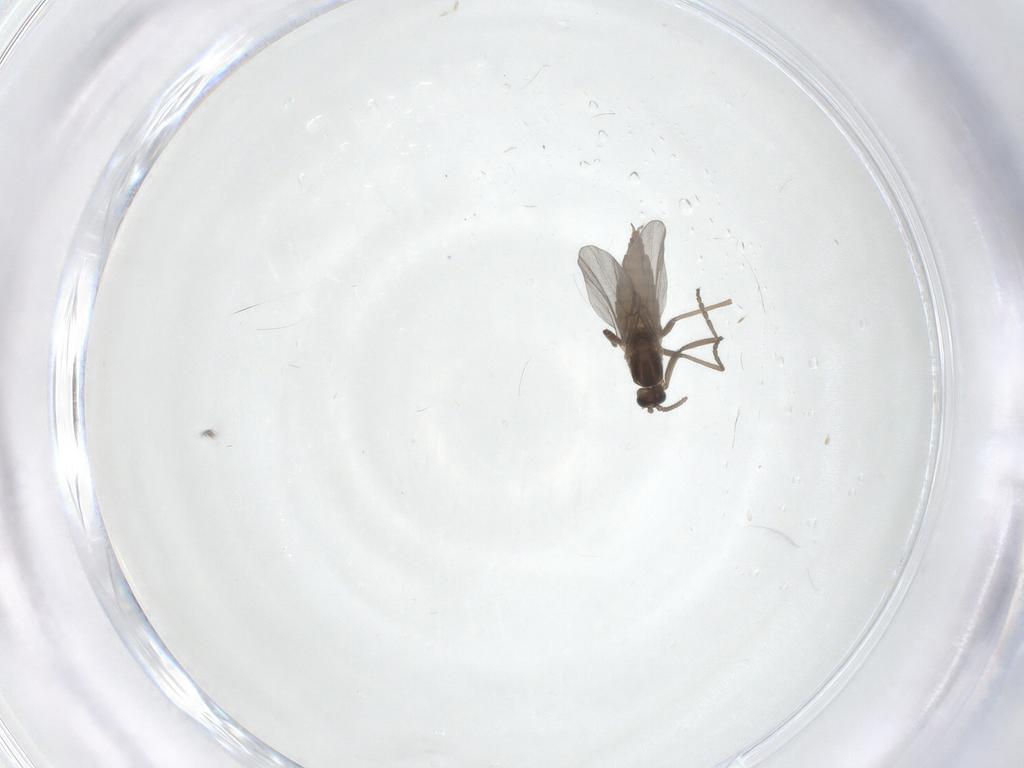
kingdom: Animalia
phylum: Arthropoda
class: Insecta
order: Diptera
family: Cecidomyiidae
